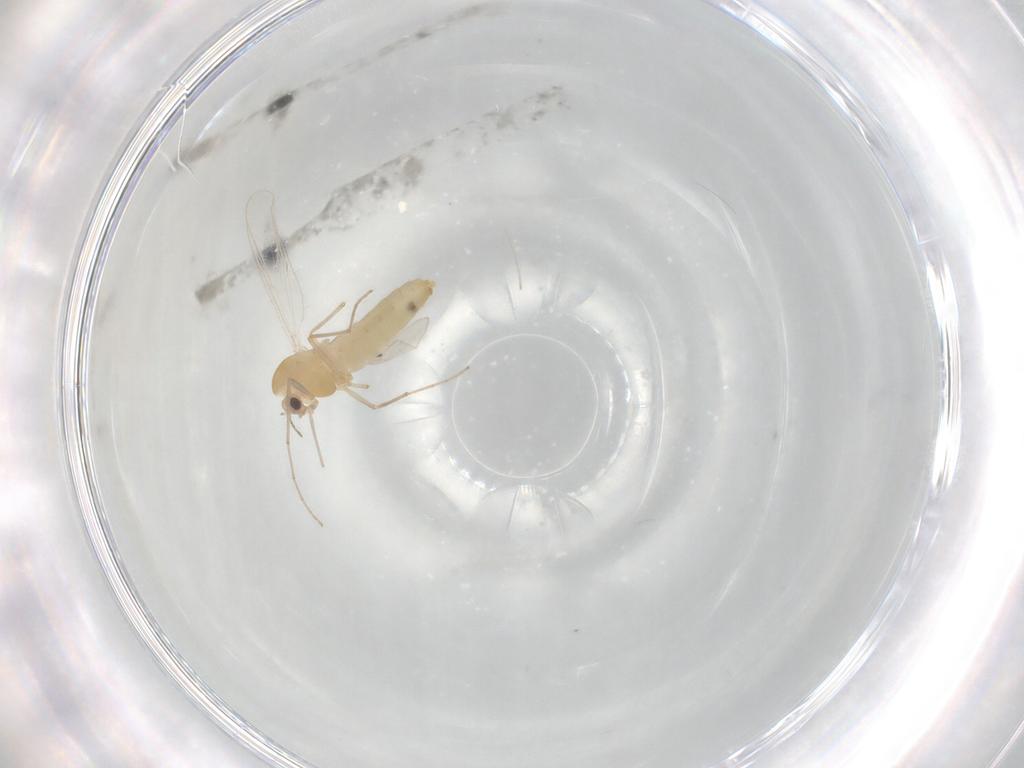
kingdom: Animalia
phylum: Arthropoda
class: Insecta
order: Diptera
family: Chironomidae
